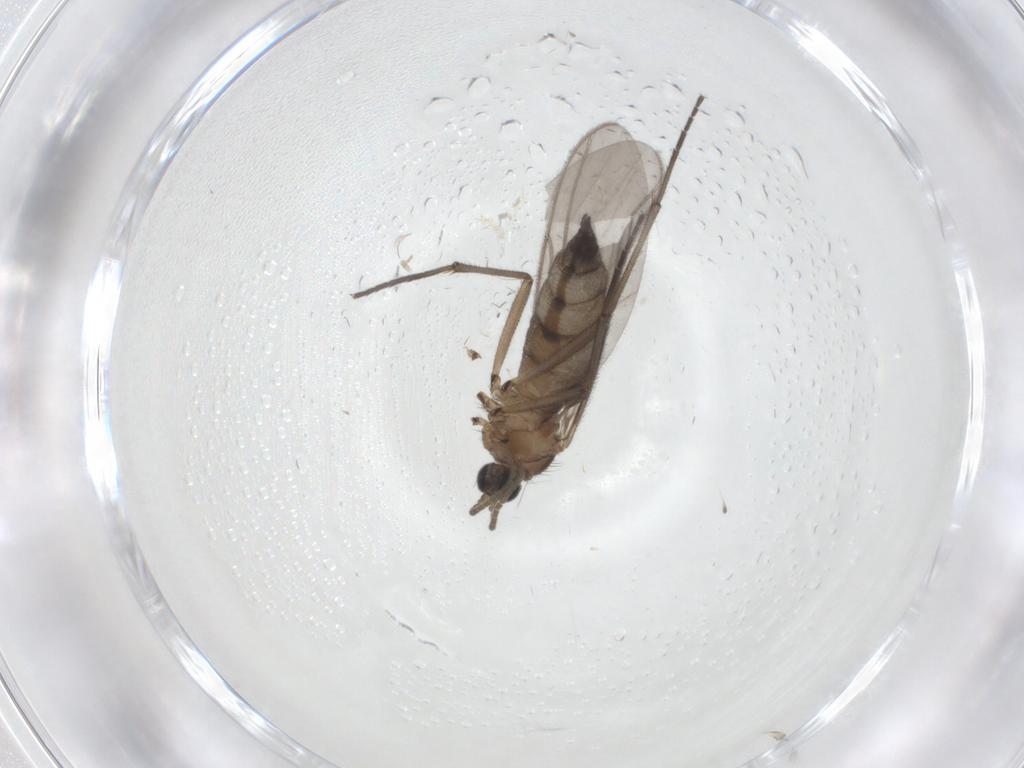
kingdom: Animalia
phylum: Arthropoda
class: Insecta
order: Diptera
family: Cecidomyiidae
